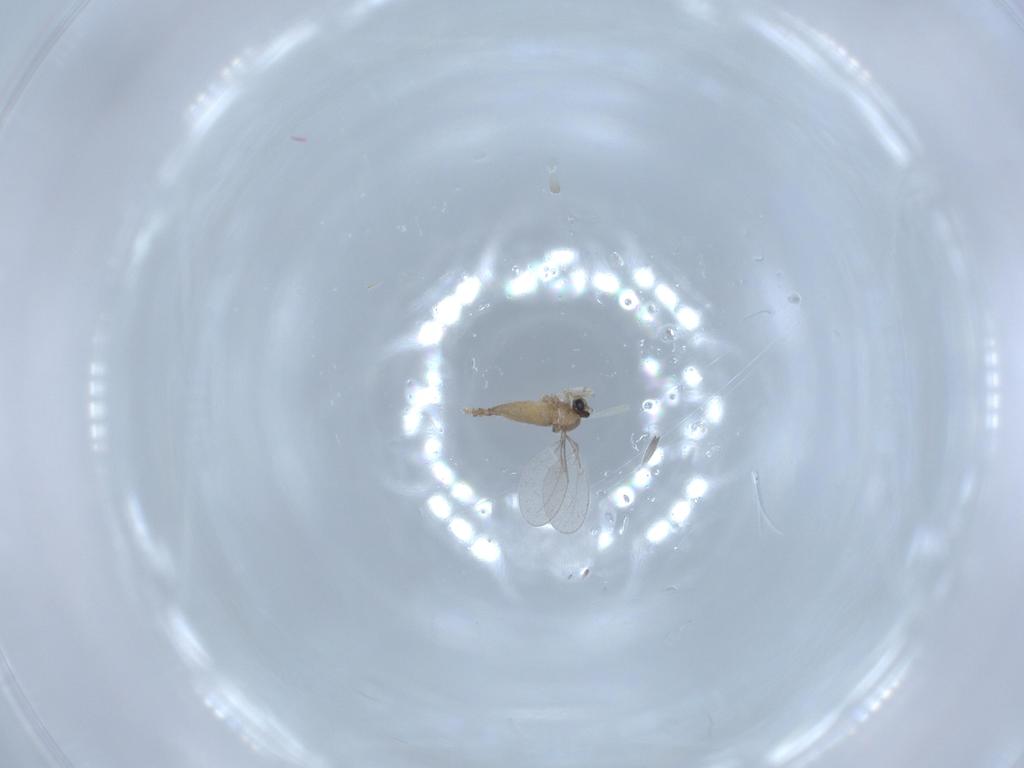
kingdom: Animalia
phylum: Arthropoda
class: Insecta
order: Diptera
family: Cecidomyiidae
